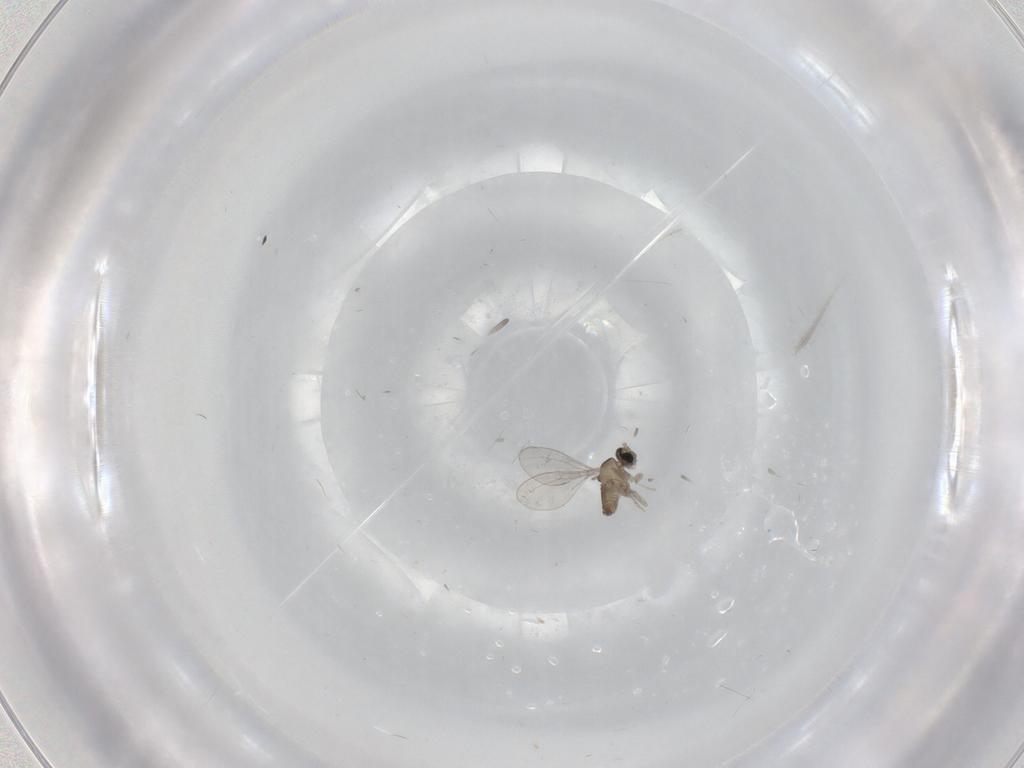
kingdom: Animalia
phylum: Arthropoda
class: Insecta
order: Diptera
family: Cecidomyiidae
